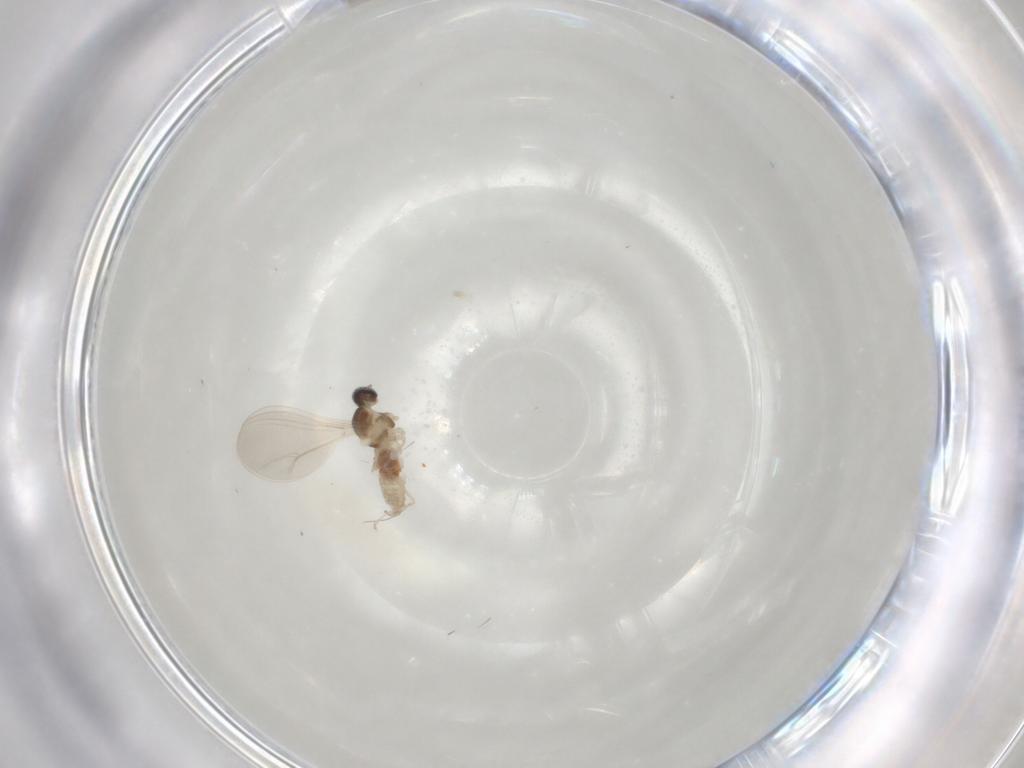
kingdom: Animalia
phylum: Arthropoda
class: Insecta
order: Diptera
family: Cecidomyiidae
